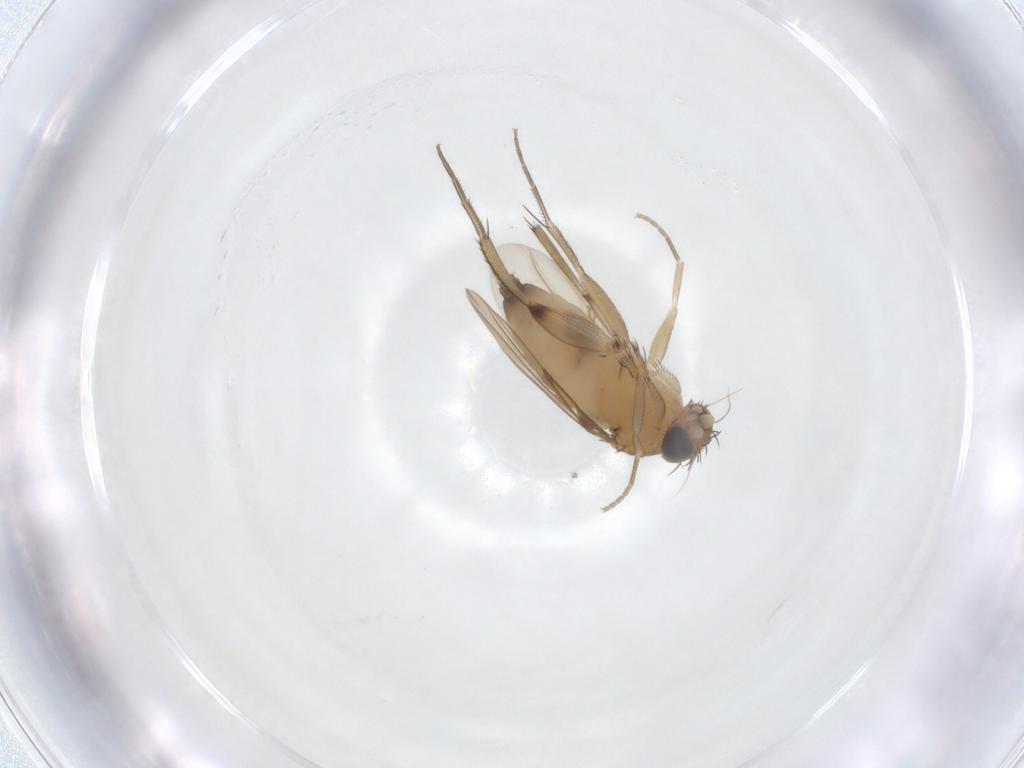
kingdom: Animalia
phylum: Arthropoda
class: Insecta
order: Diptera
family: Phoridae
